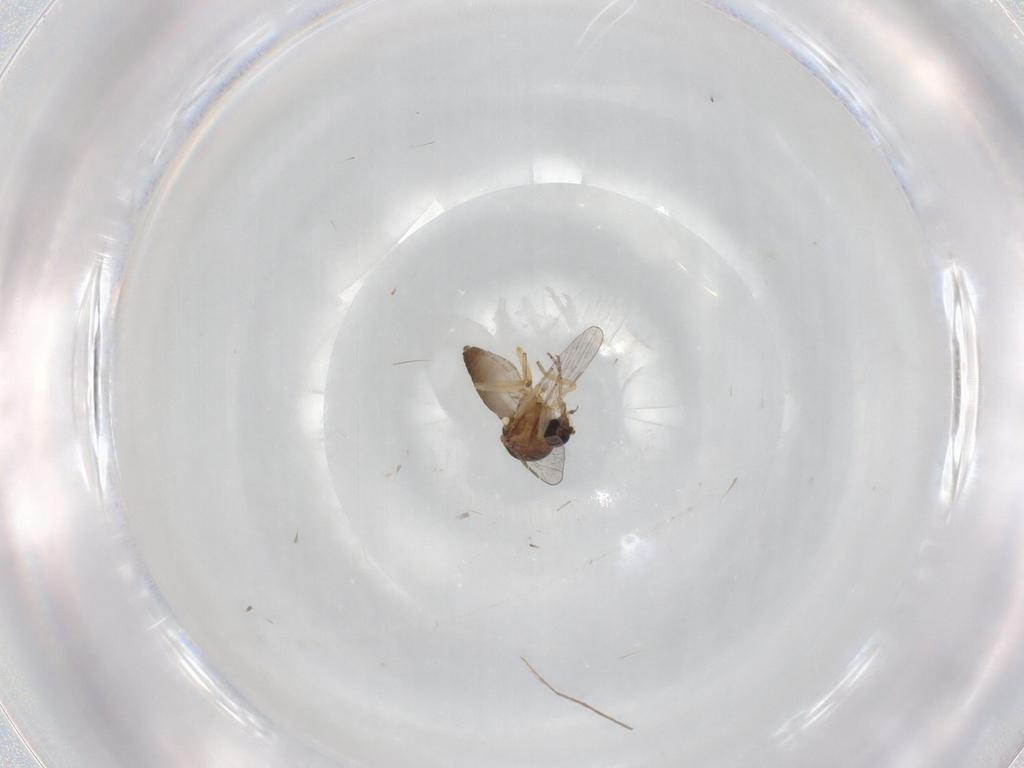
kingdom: Animalia
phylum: Arthropoda
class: Insecta
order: Diptera
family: Ceratopogonidae
